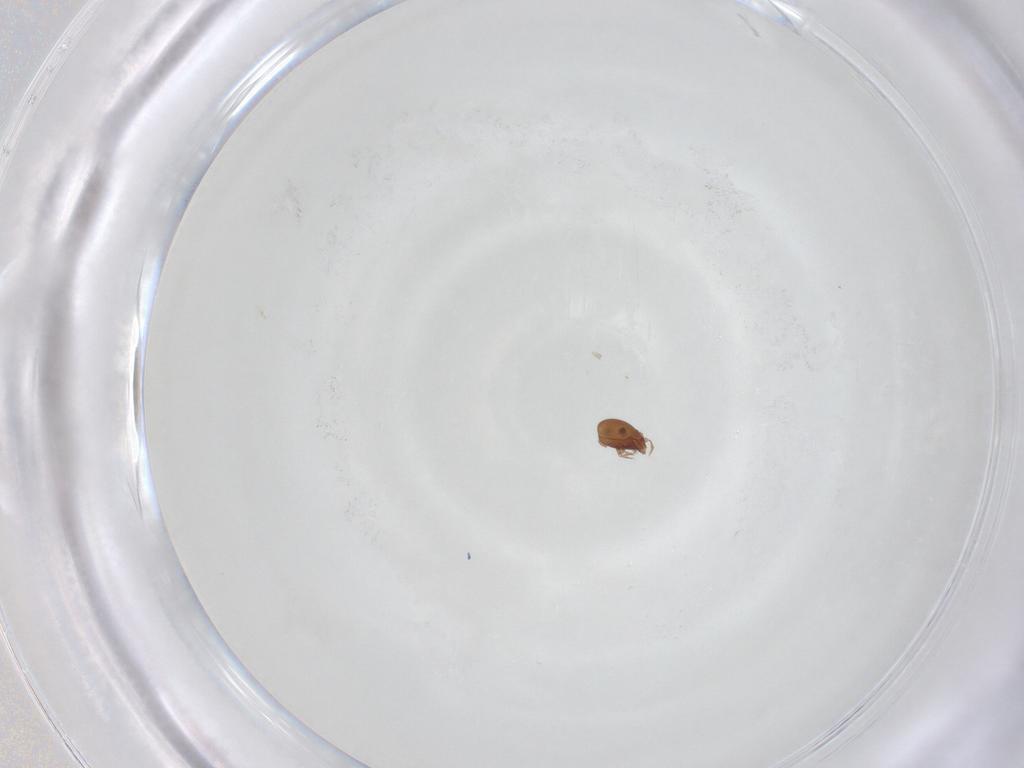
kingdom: Animalia
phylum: Arthropoda
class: Arachnida
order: Sarcoptiformes
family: Scheloribatidae
